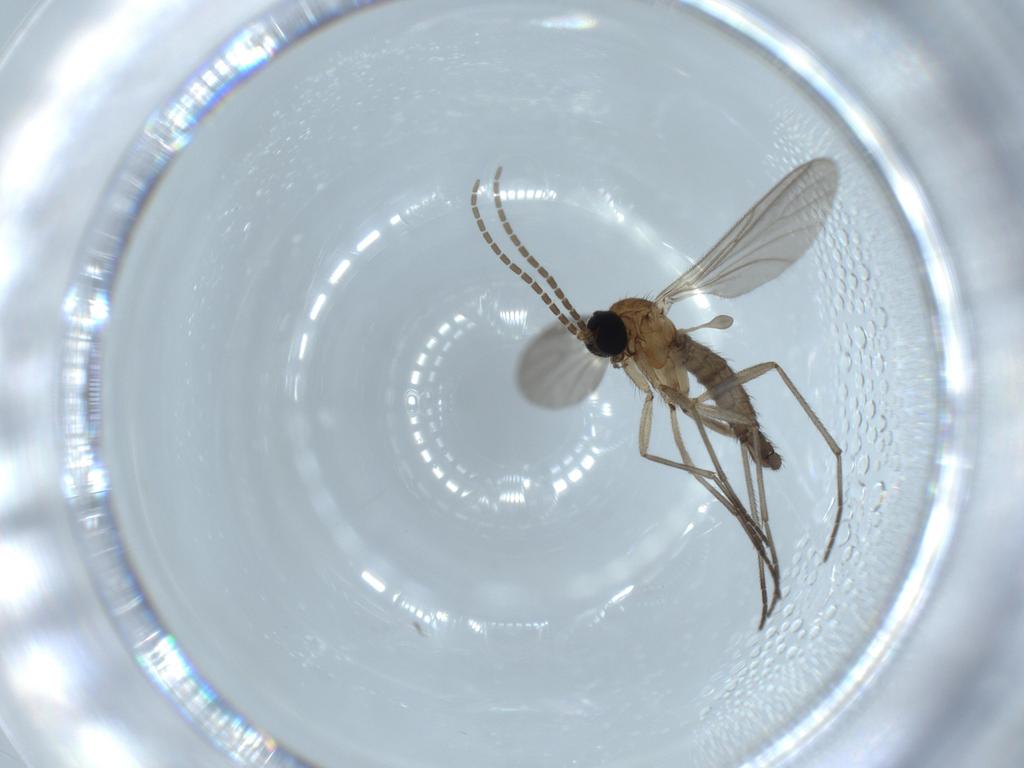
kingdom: Animalia
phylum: Arthropoda
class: Insecta
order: Diptera
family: Sciaridae
